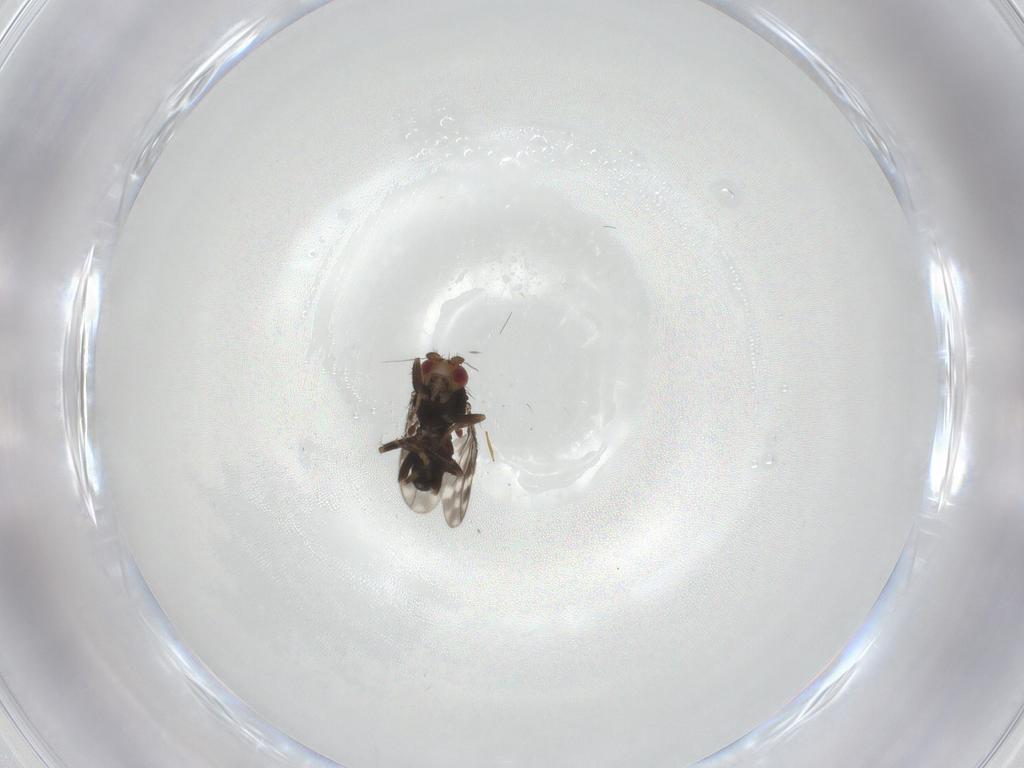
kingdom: Animalia
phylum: Arthropoda
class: Insecta
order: Diptera
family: Sphaeroceridae
